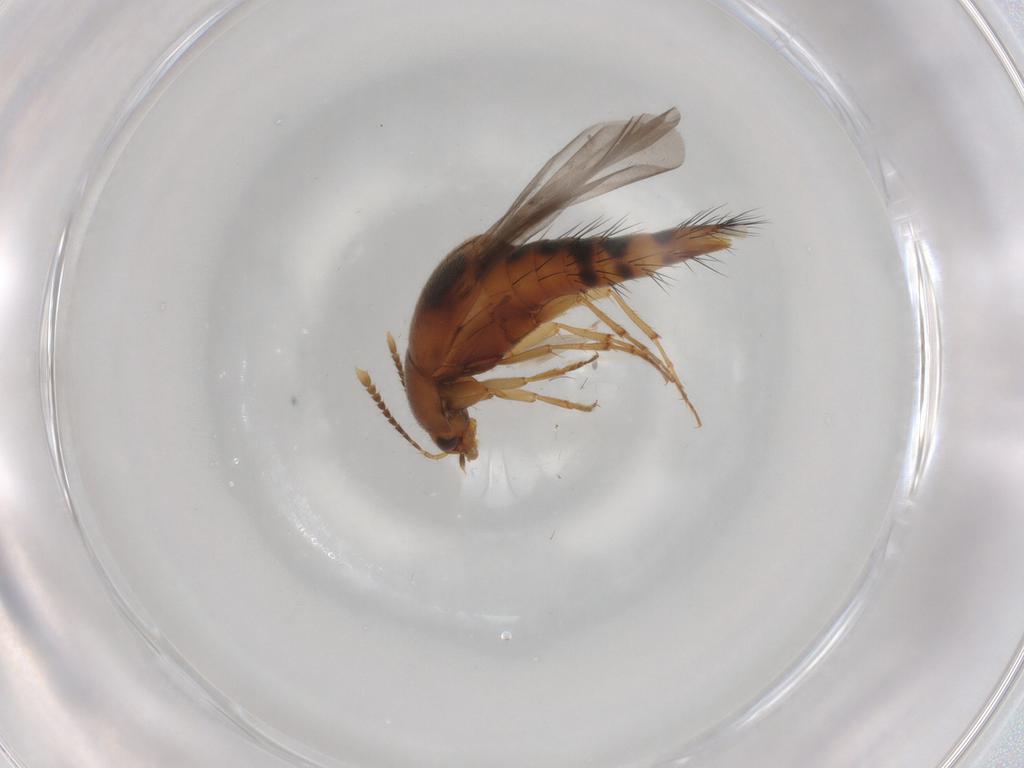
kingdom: Animalia
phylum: Arthropoda
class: Insecta
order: Coleoptera
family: Staphylinidae
